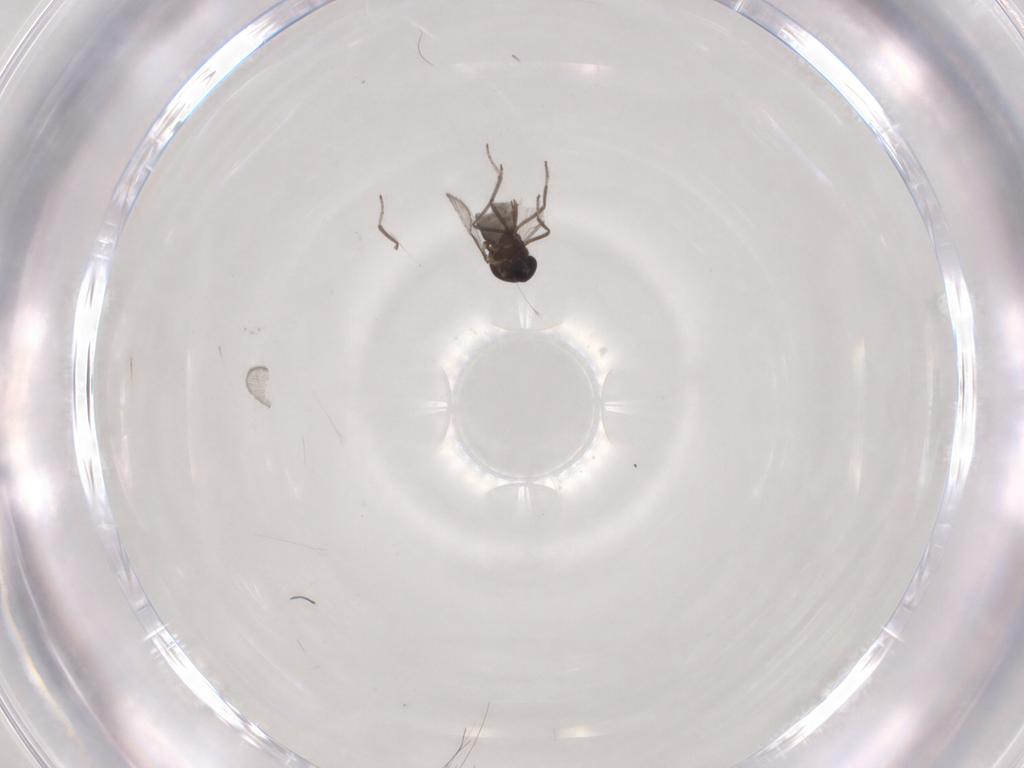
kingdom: Animalia
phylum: Arthropoda
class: Insecta
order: Diptera
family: Ceratopogonidae
